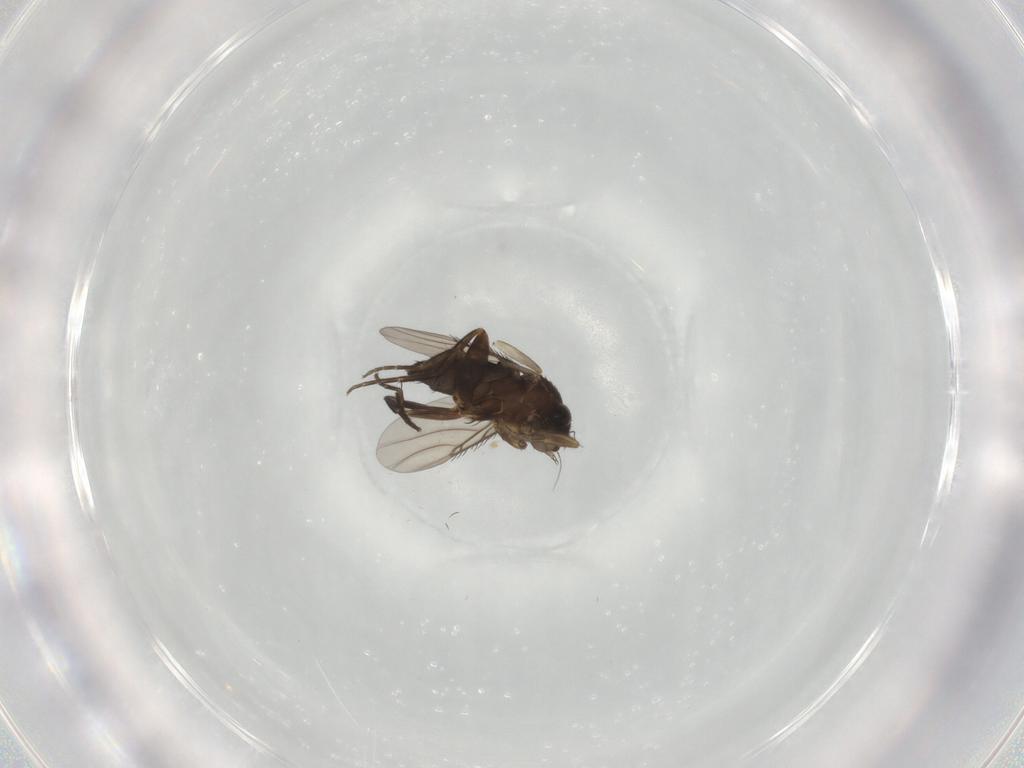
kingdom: Animalia
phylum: Arthropoda
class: Insecta
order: Diptera
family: Phoridae
